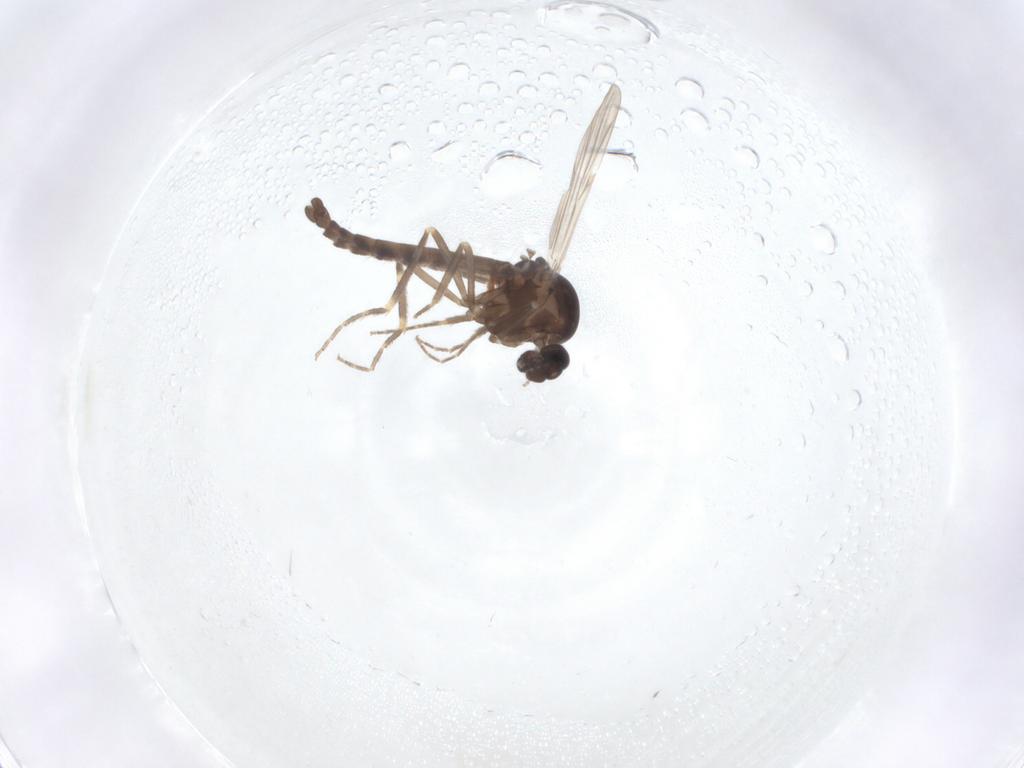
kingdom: Animalia
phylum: Arthropoda
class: Insecta
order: Diptera
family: Ceratopogonidae
